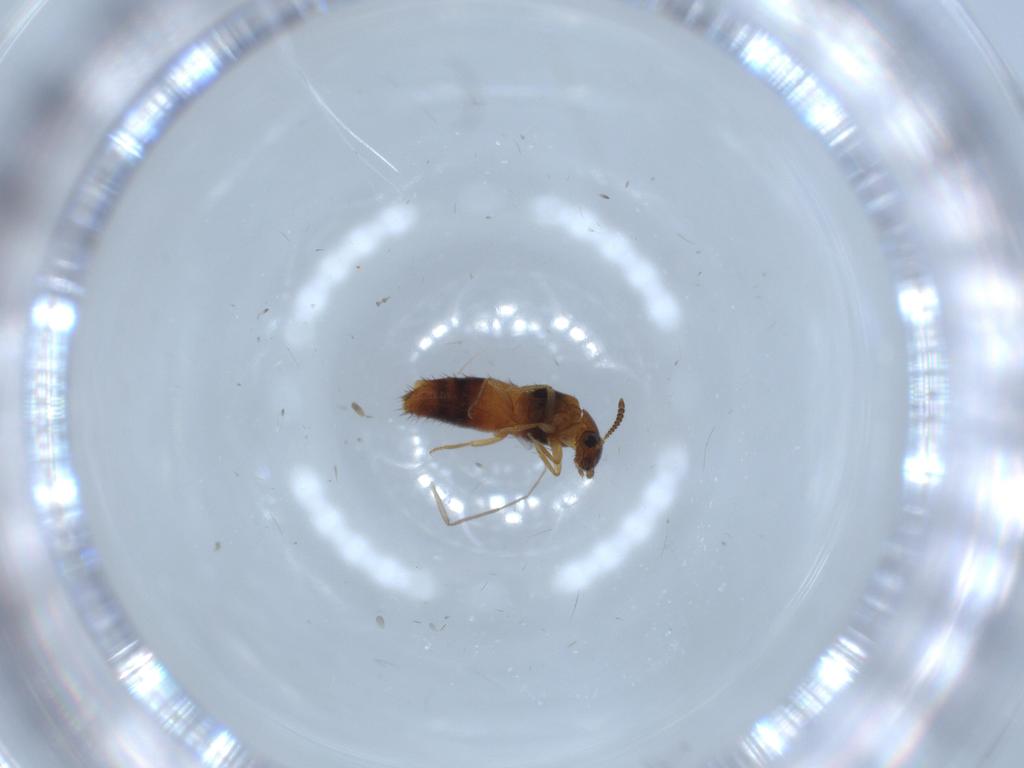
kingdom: Animalia
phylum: Arthropoda
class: Insecta
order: Coleoptera
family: Staphylinidae
